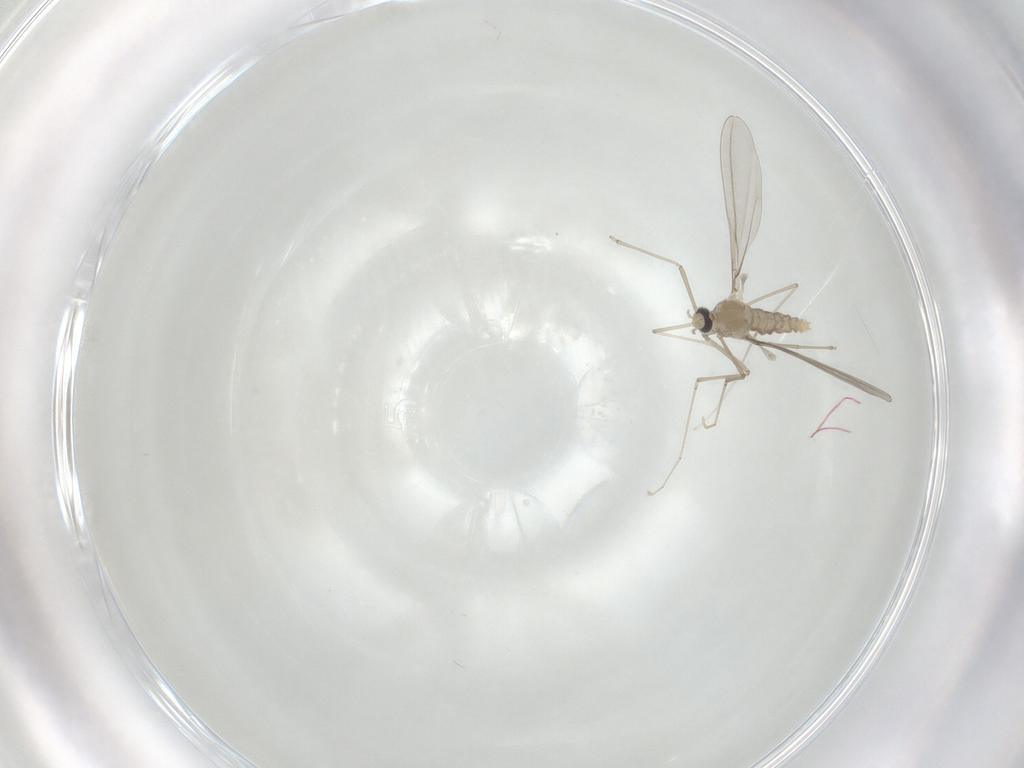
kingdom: Animalia
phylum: Arthropoda
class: Insecta
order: Diptera
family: Cecidomyiidae
